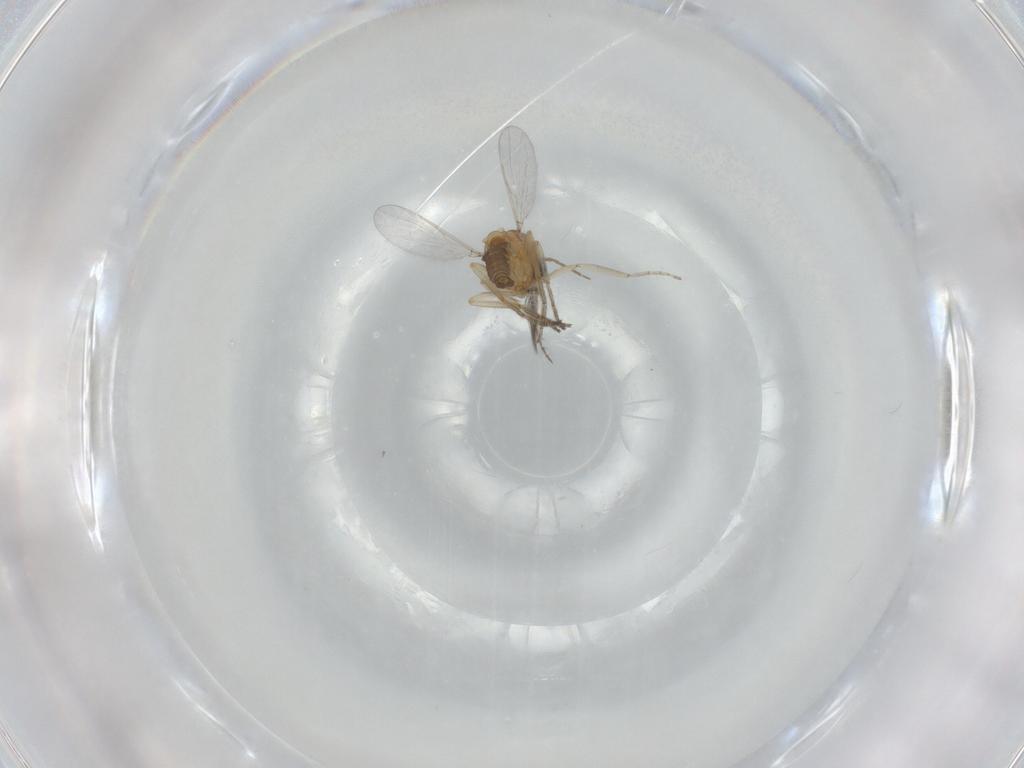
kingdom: Animalia
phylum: Arthropoda
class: Insecta
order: Diptera
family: Ceratopogonidae
